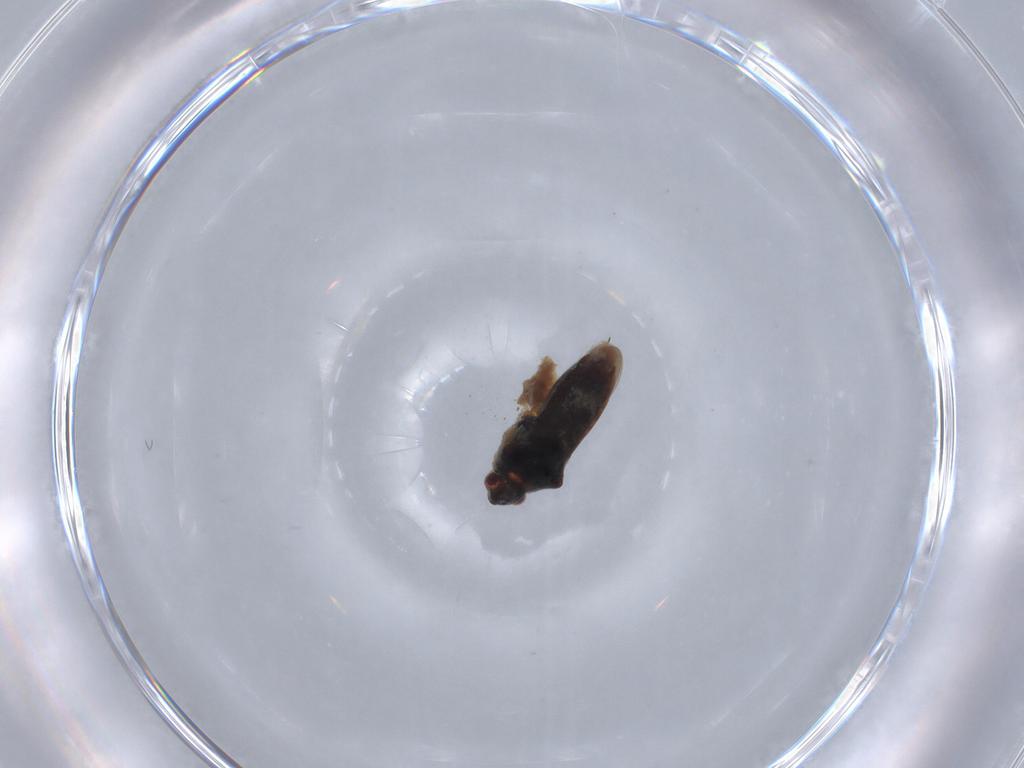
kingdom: Animalia
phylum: Arthropoda
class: Insecta
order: Hemiptera
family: Veliidae
